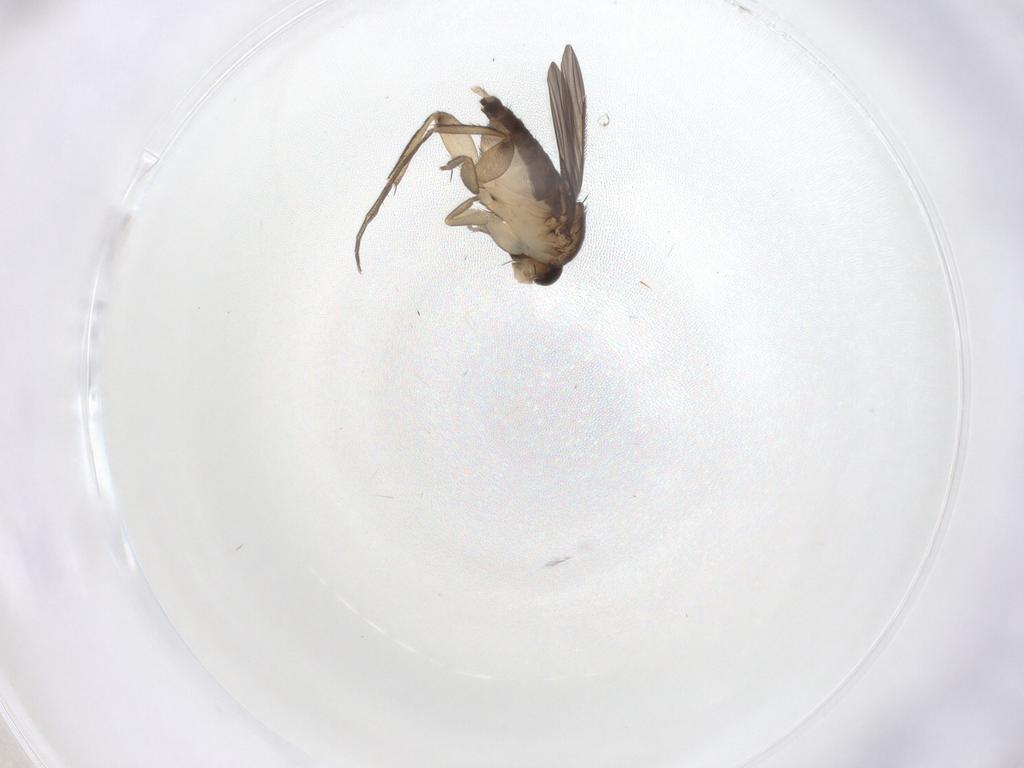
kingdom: Animalia
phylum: Arthropoda
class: Insecta
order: Diptera
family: Phoridae
